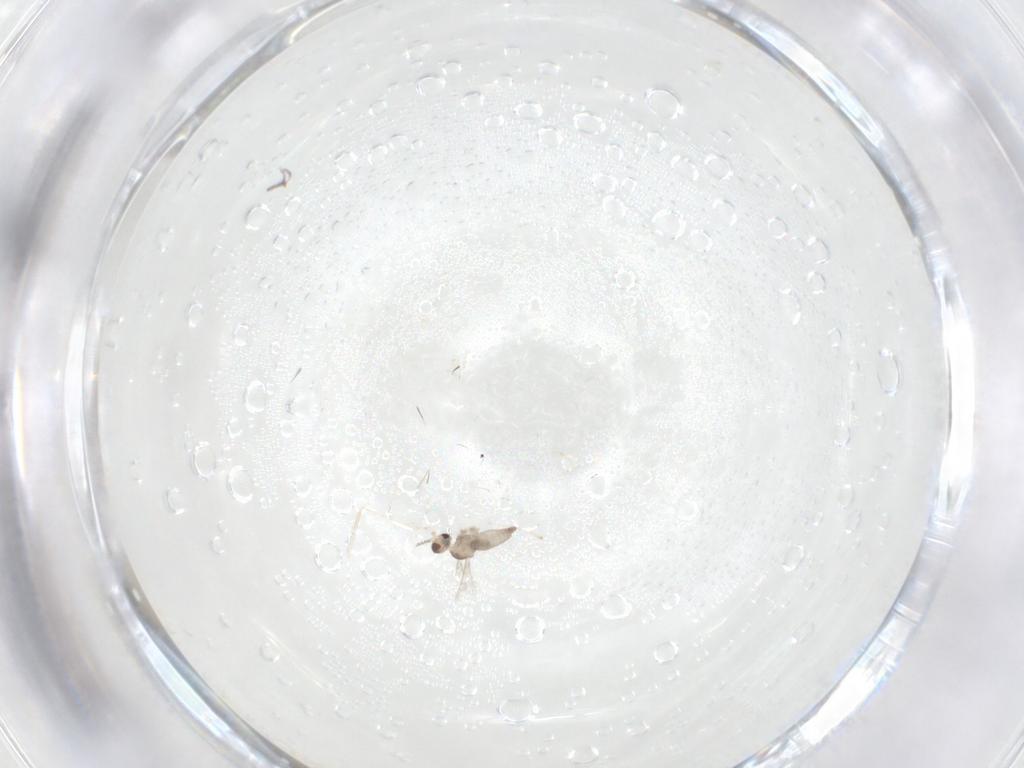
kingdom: Animalia
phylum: Arthropoda
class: Insecta
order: Diptera
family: Cecidomyiidae
